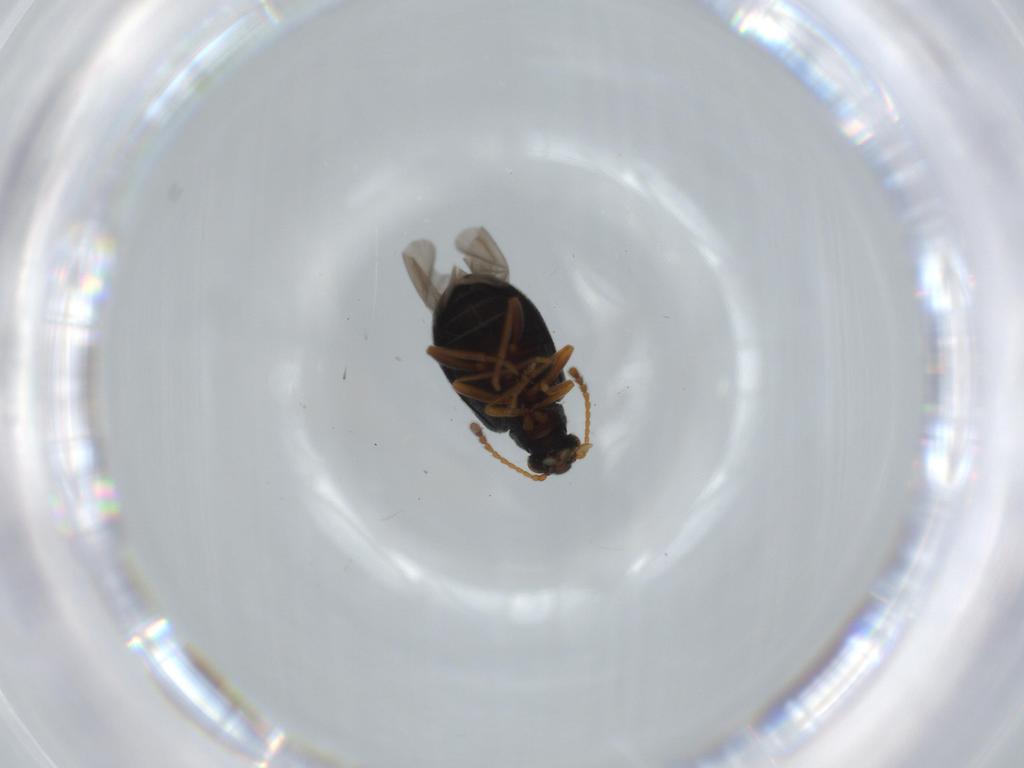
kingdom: Animalia
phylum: Arthropoda
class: Insecta
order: Coleoptera
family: Aderidae
